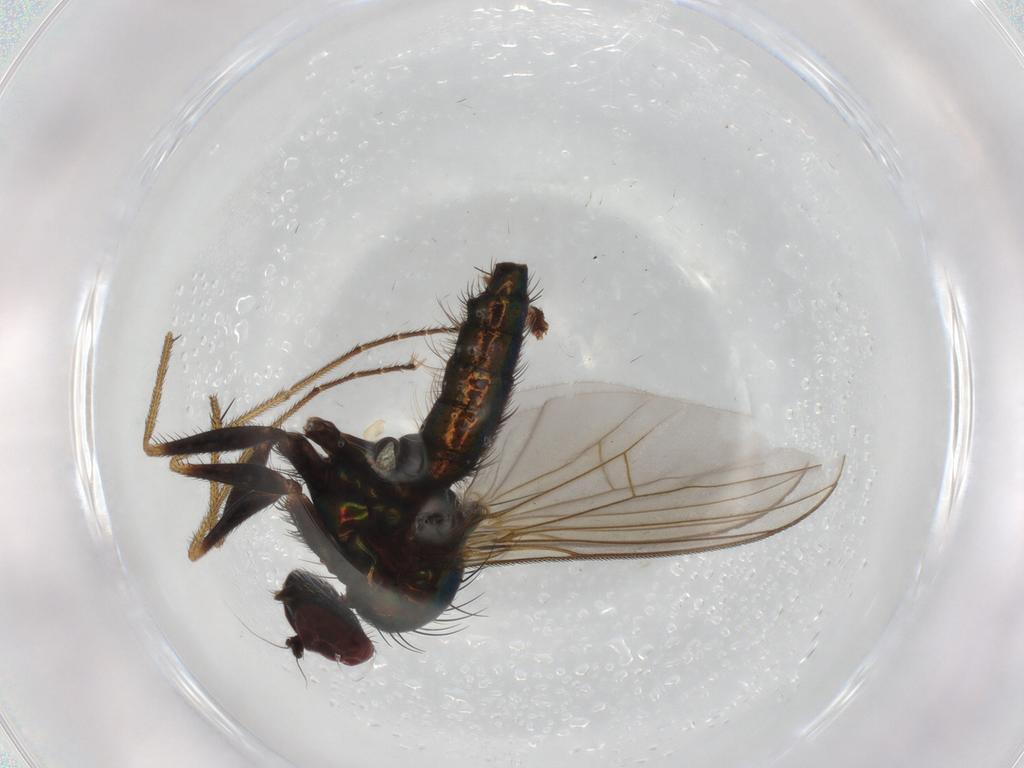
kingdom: Animalia
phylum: Arthropoda
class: Insecta
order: Diptera
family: Dolichopodidae
